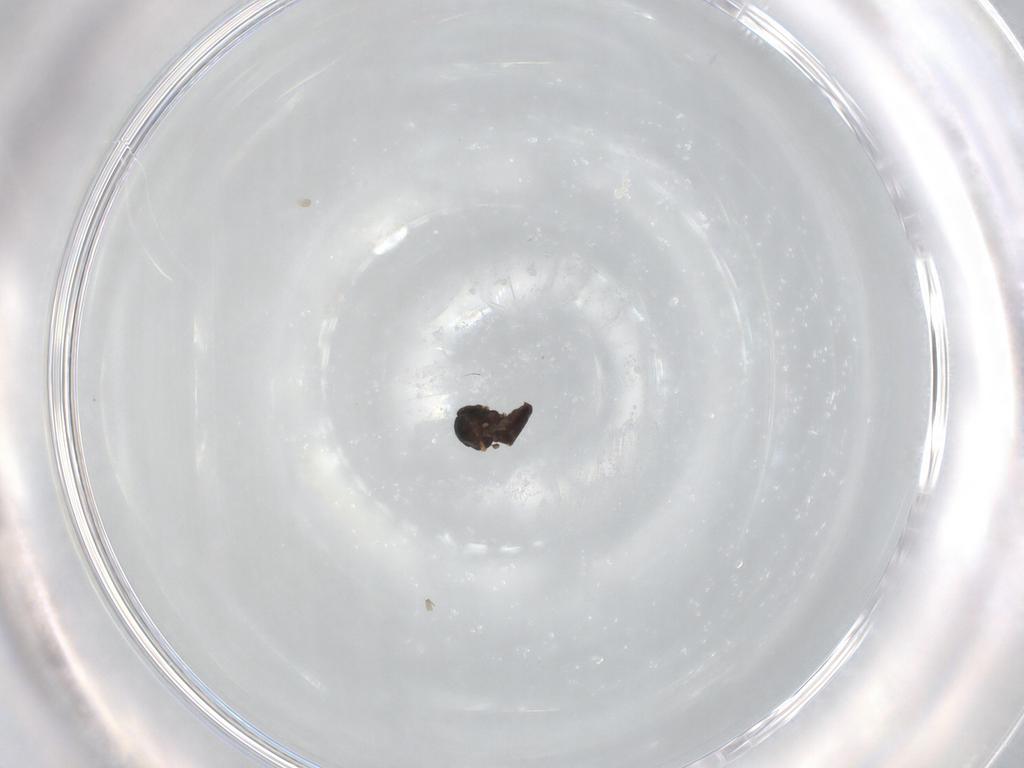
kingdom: Animalia
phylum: Arthropoda
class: Insecta
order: Diptera
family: Ceratopogonidae
